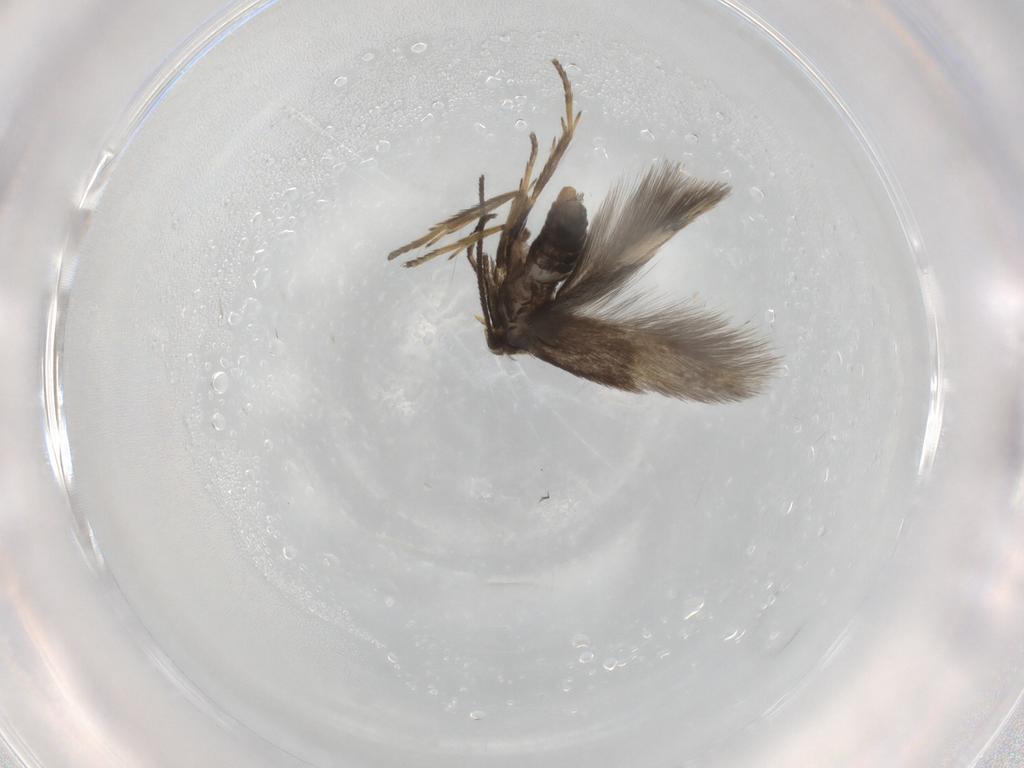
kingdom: Animalia
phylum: Arthropoda
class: Insecta
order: Lepidoptera
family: Nepticulidae
